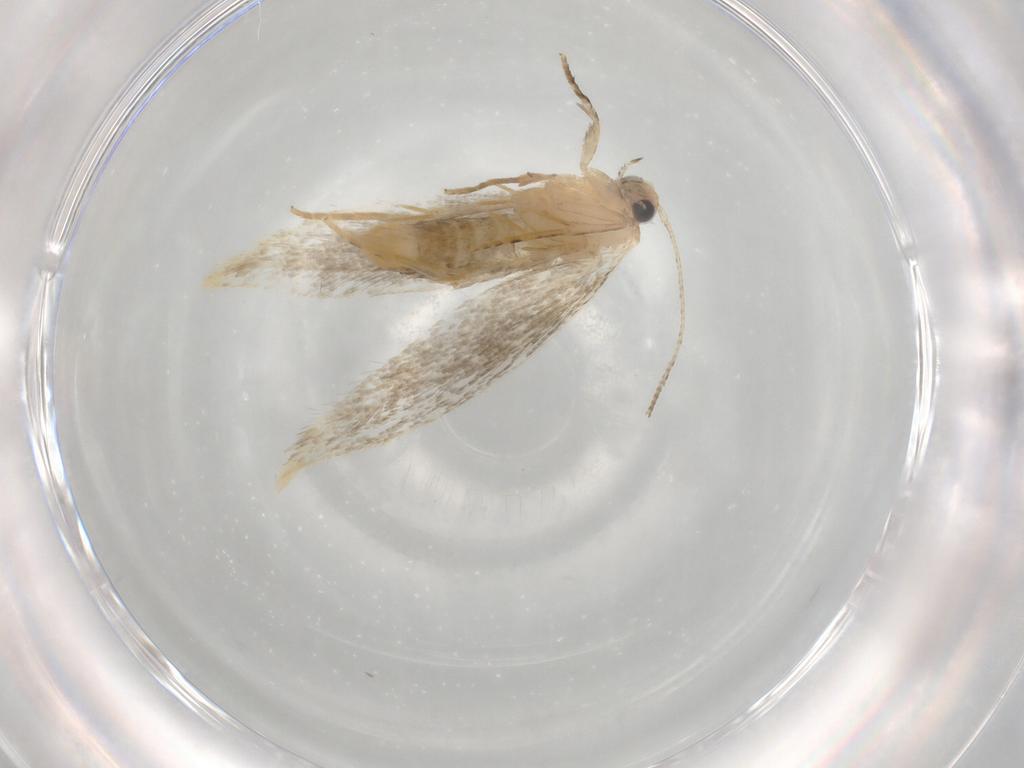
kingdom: Animalia
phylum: Arthropoda
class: Insecta
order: Lepidoptera
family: Tineidae
